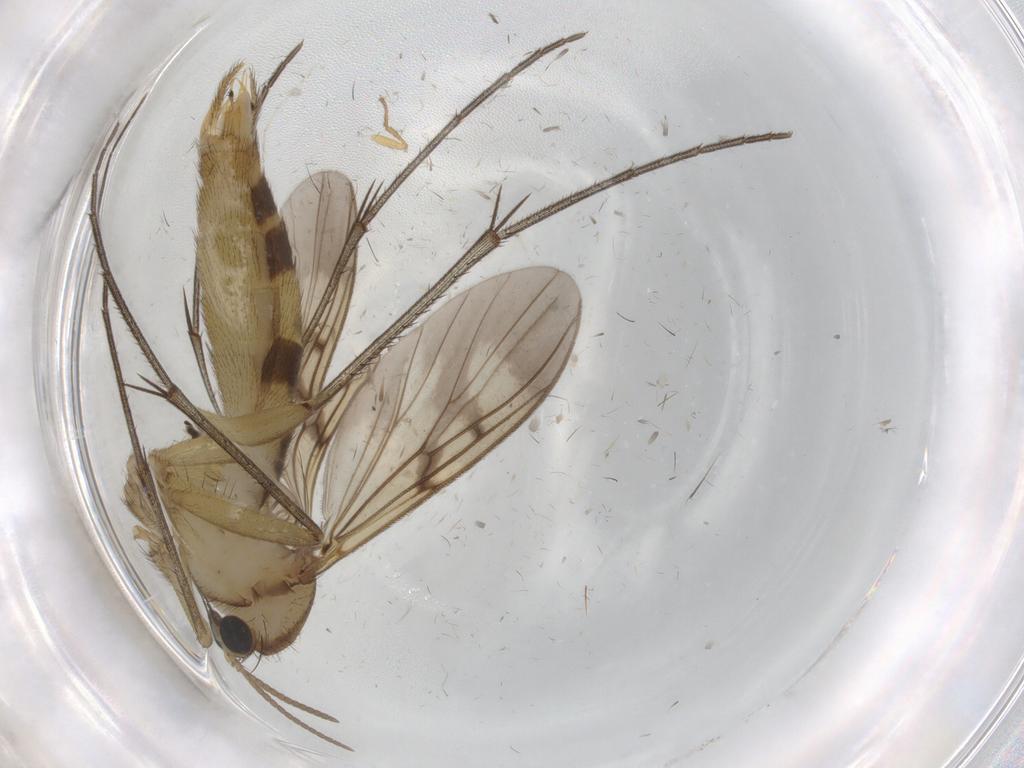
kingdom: Animalia
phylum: Arthropoda
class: Insecta
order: Diptera
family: Mycetophilidae
